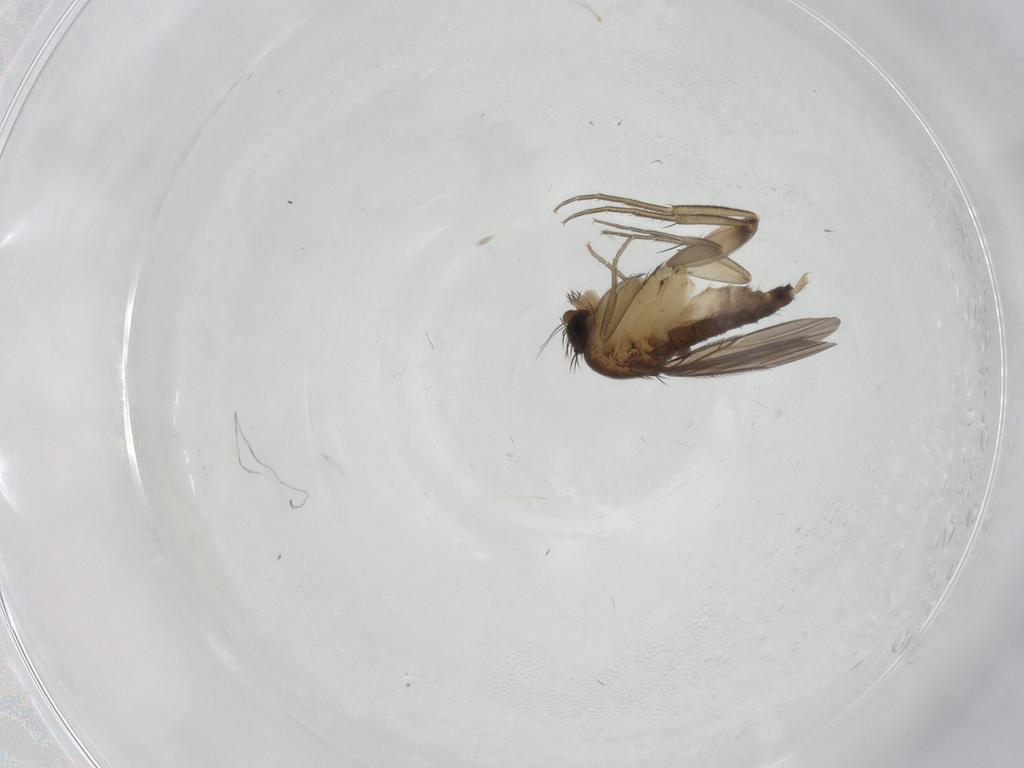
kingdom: Animalia
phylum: Arthropoda
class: Insecta
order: Diptera
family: Phoridae
